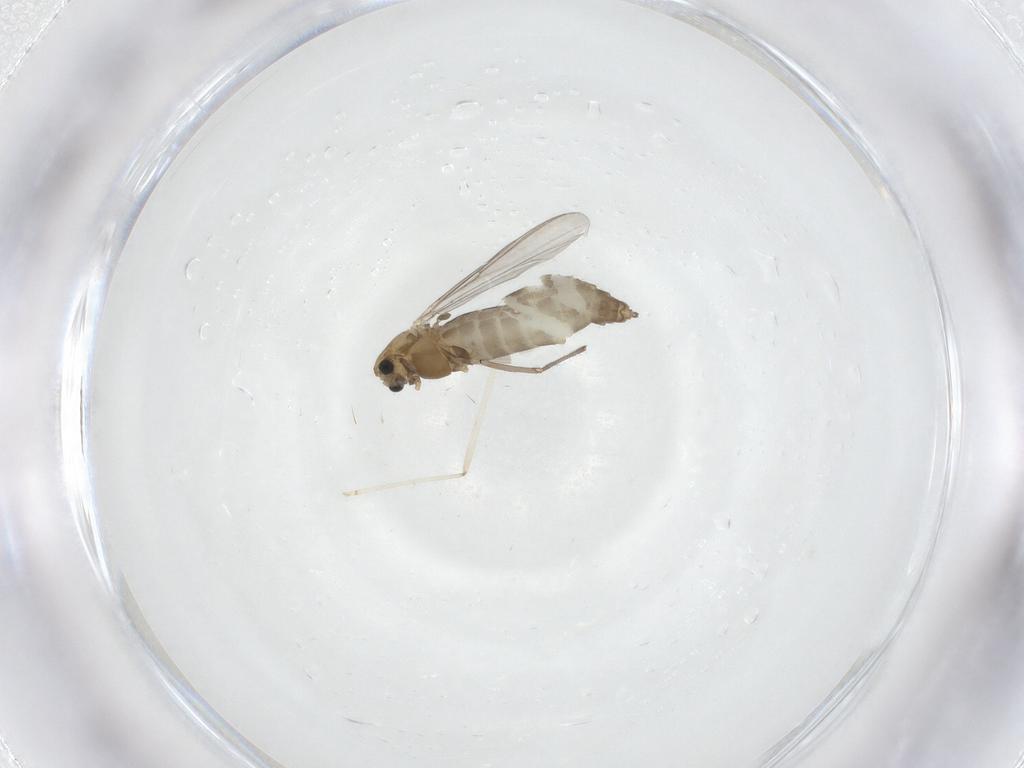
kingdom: Animalia
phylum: Arthropoda
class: Insecta
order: Diptera
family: Chironomidae
